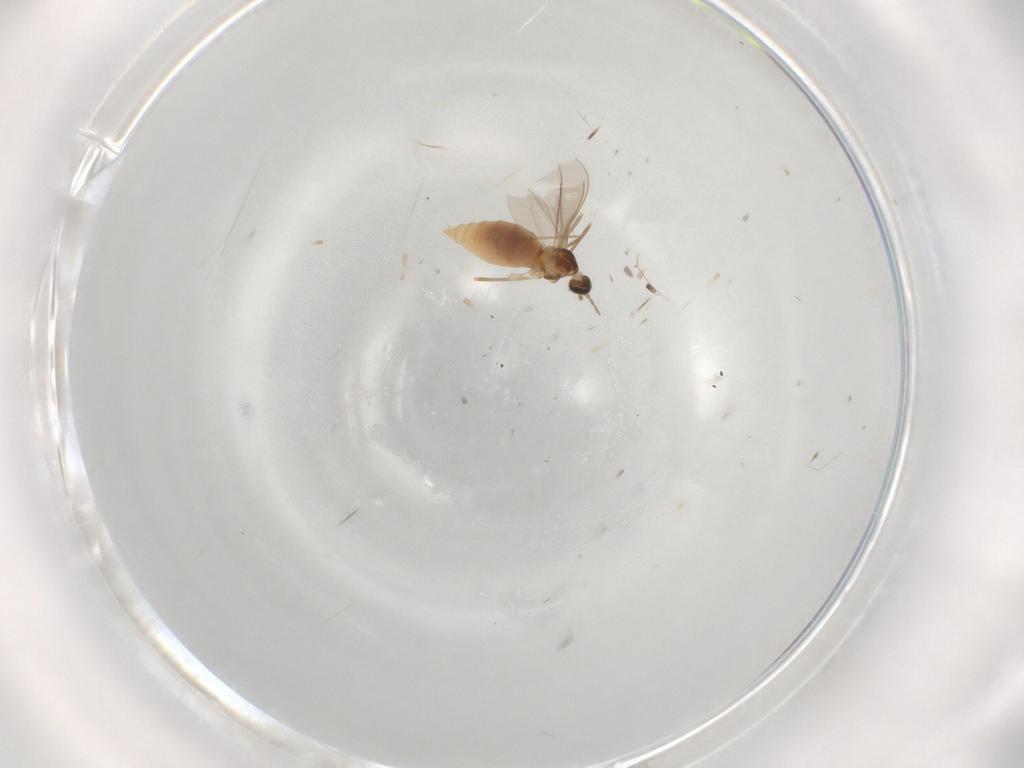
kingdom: Animalia
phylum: Arthropoda
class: Insecta
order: Diptera
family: Cecidomyiidae
